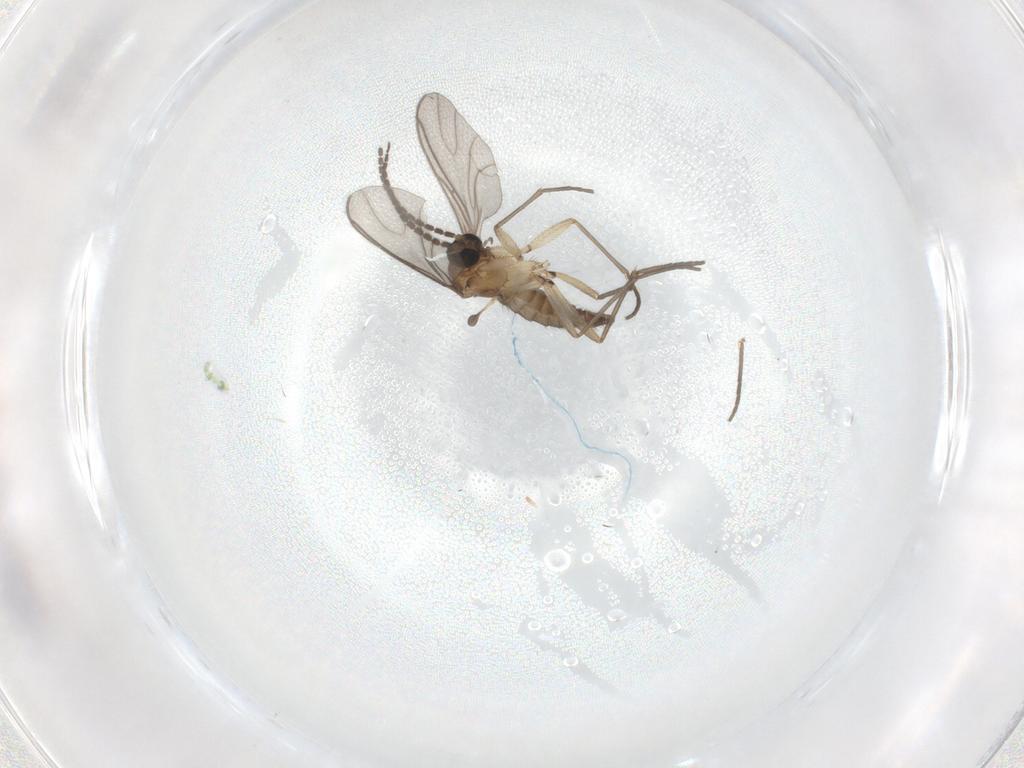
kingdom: Animalia
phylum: Arthropoda
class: Insecta
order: Diptera
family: Sciaridae
